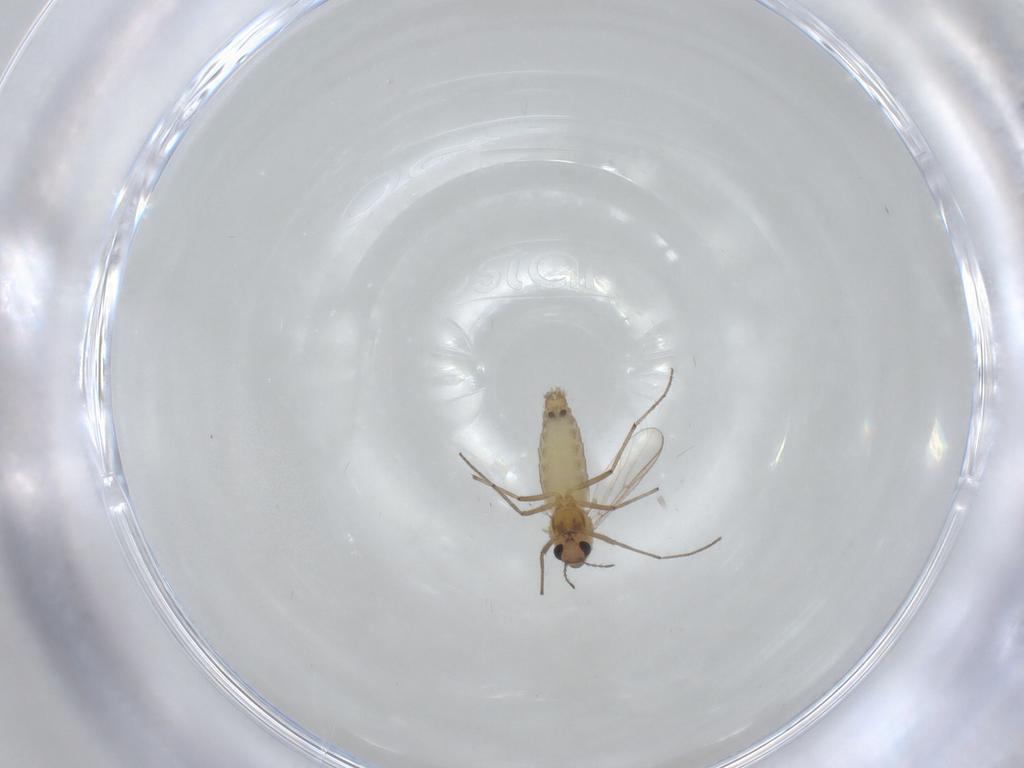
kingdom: Animalia
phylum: Arthropoda
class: Insecta
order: Diptera
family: Chironomidae
